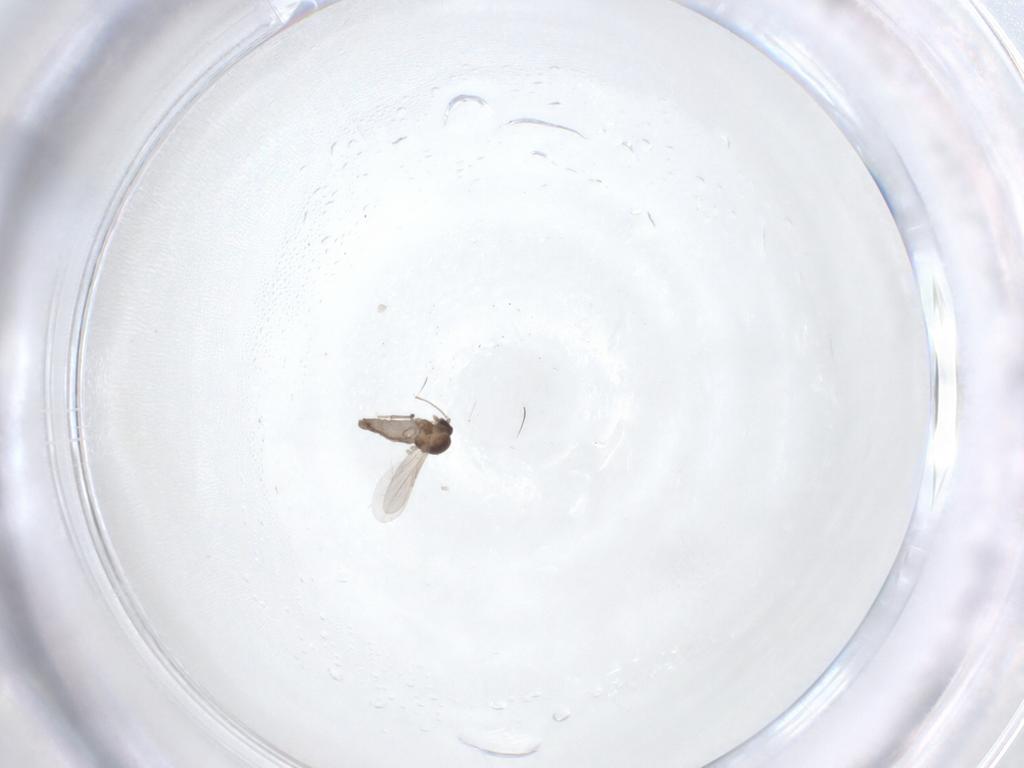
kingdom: Animalia
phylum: Arthropoda
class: Insecta
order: Diptera
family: Ceratopogonidae
